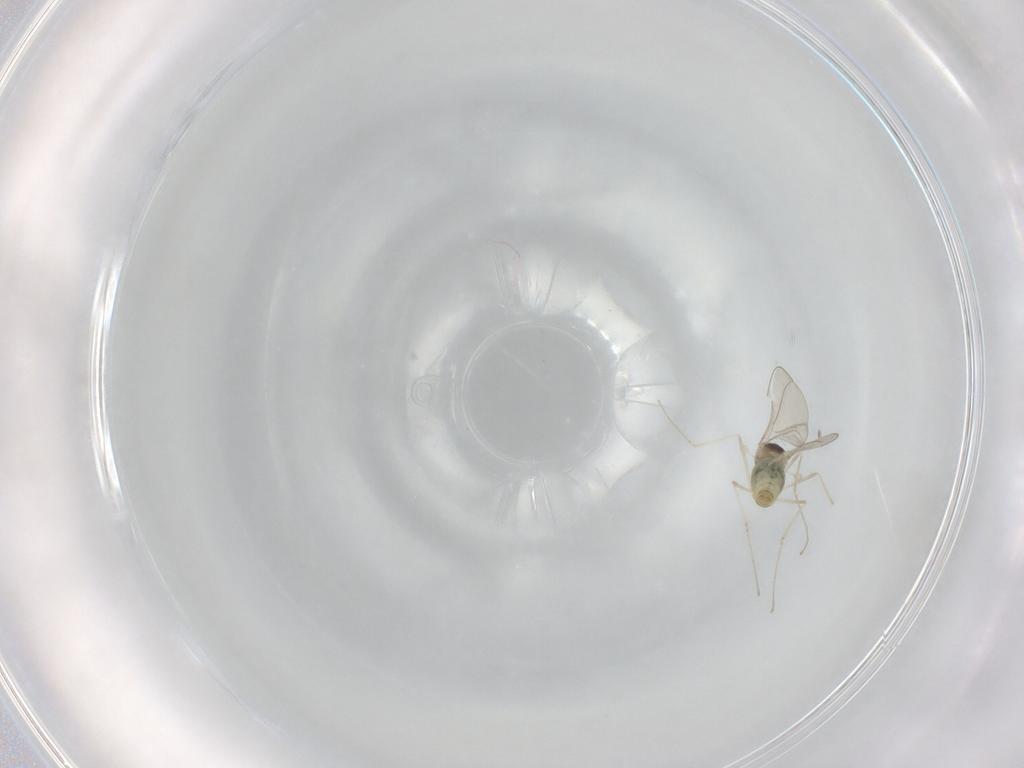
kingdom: Animalia
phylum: Arthropoda
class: Insecta
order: Diptera
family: Cecidomyiidae
